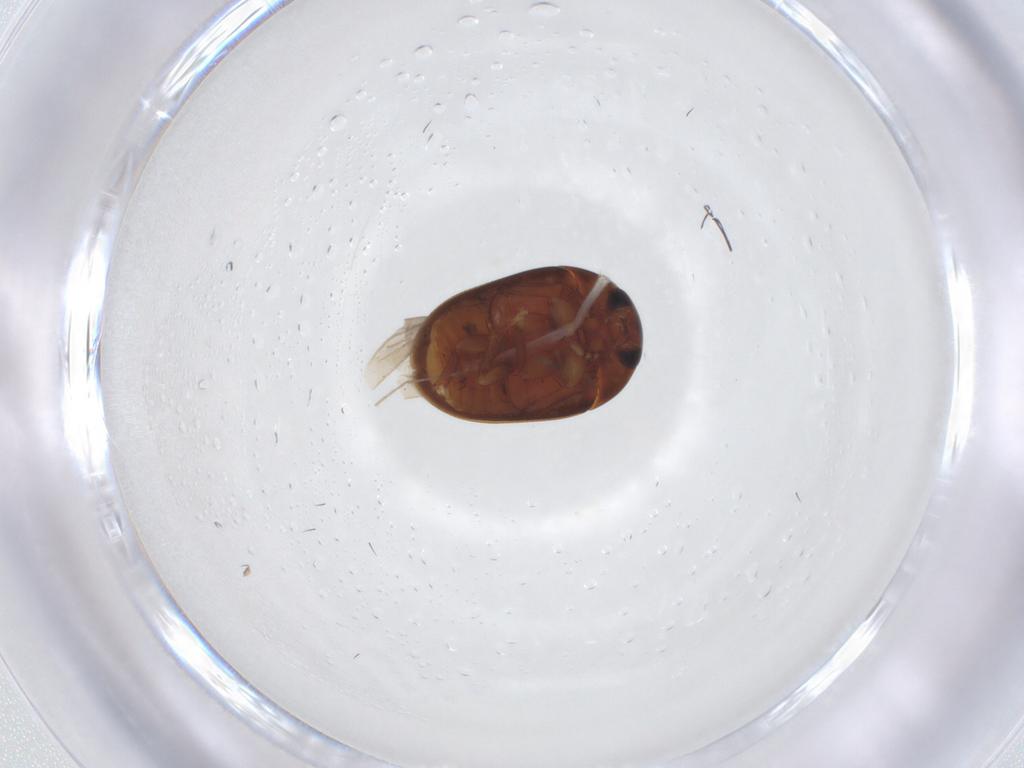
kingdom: Animalia
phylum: Arthropoda
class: Insecta
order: Coleoptera
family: Phalacridae
